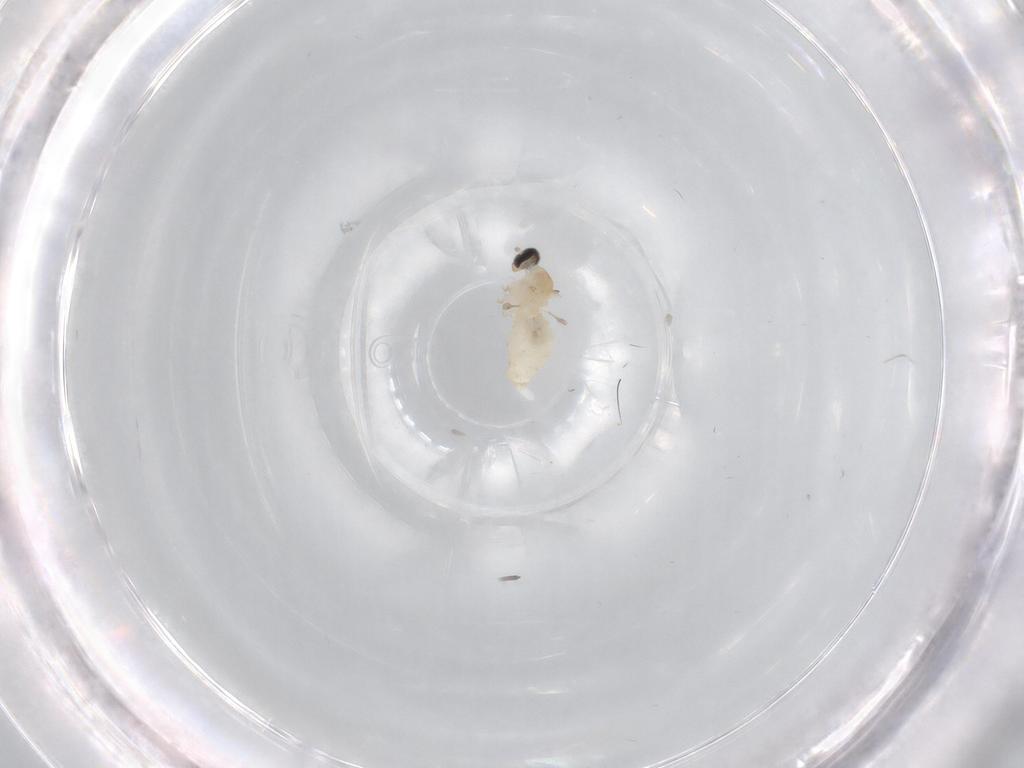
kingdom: Animalia
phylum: Arthropoda
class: Insecta
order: Diptera
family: Cecidomyiidae
